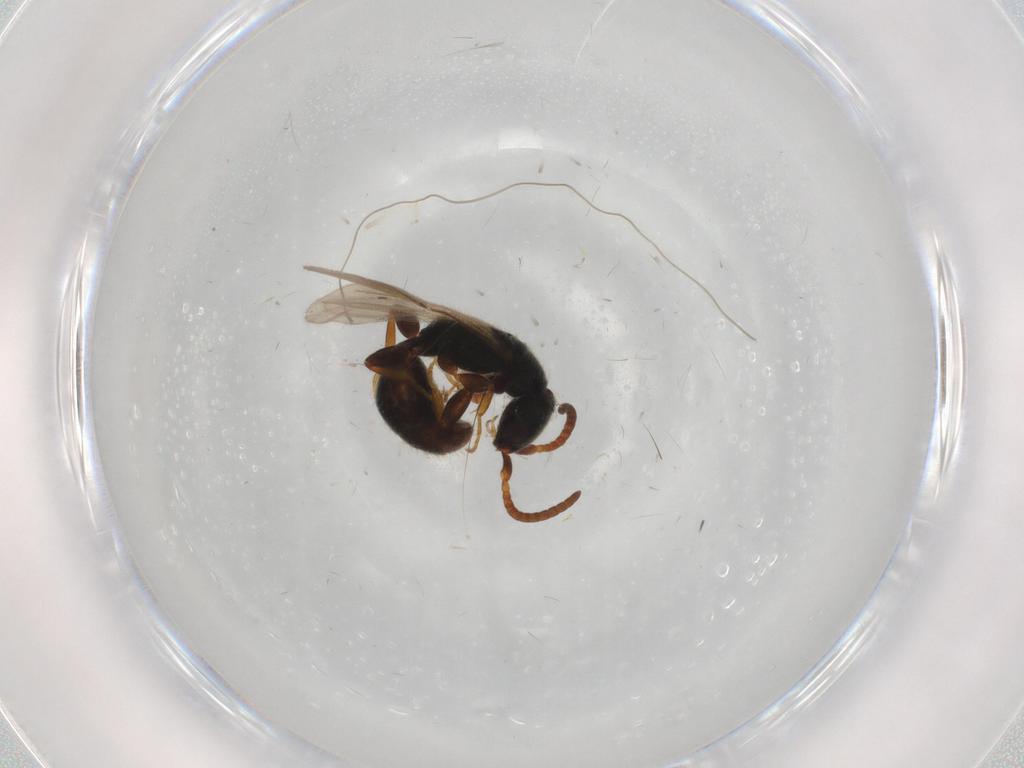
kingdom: Animalia
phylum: Arthropoda
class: Insecta
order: Hymenoptera
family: Bethylidae
